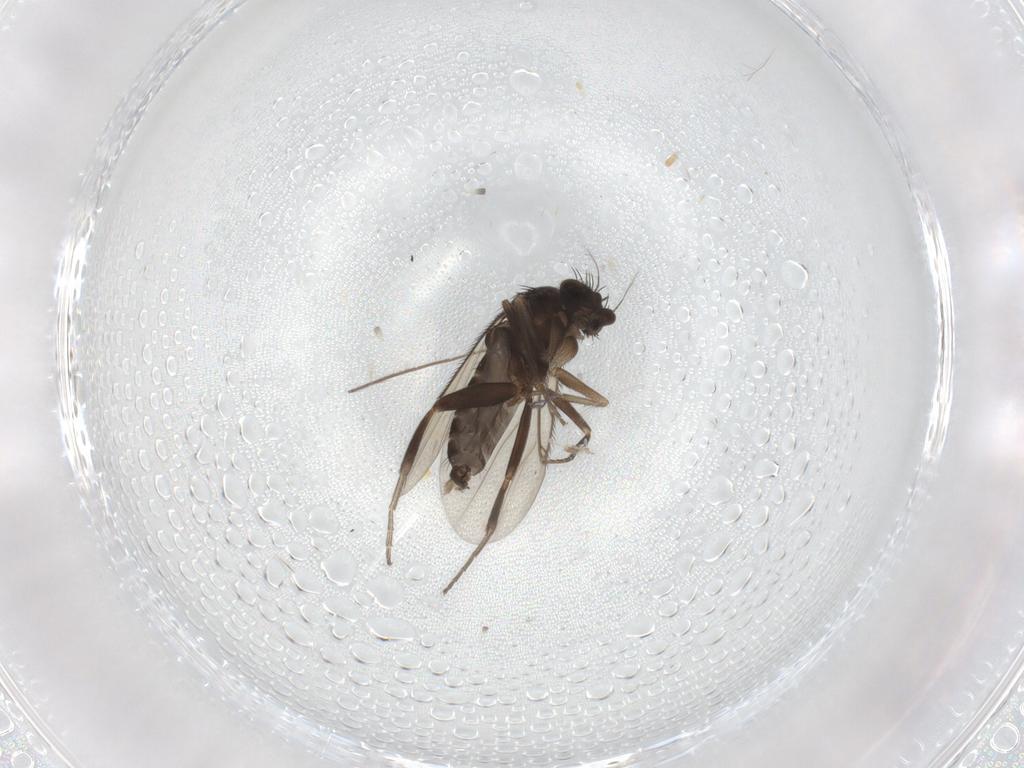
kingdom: Animalia
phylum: Arthropoda
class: Insecta
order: Diptera
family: Phoridae
